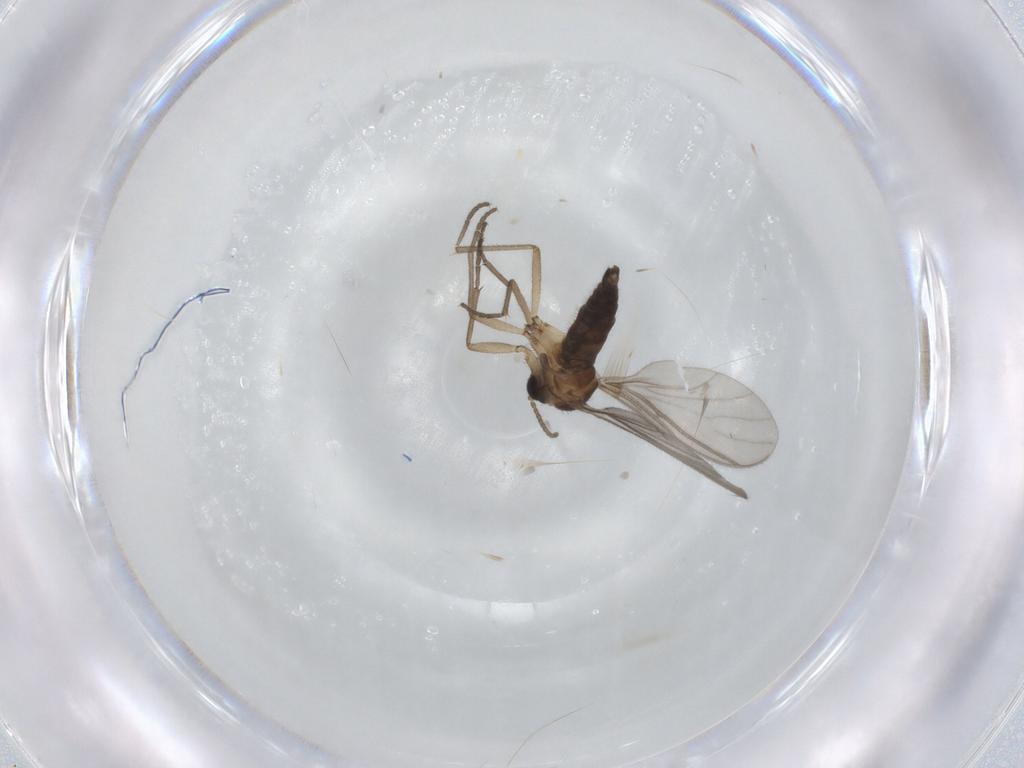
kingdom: Animalia
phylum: Arthropoda
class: Insecta
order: Diptera
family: Sciaridae
